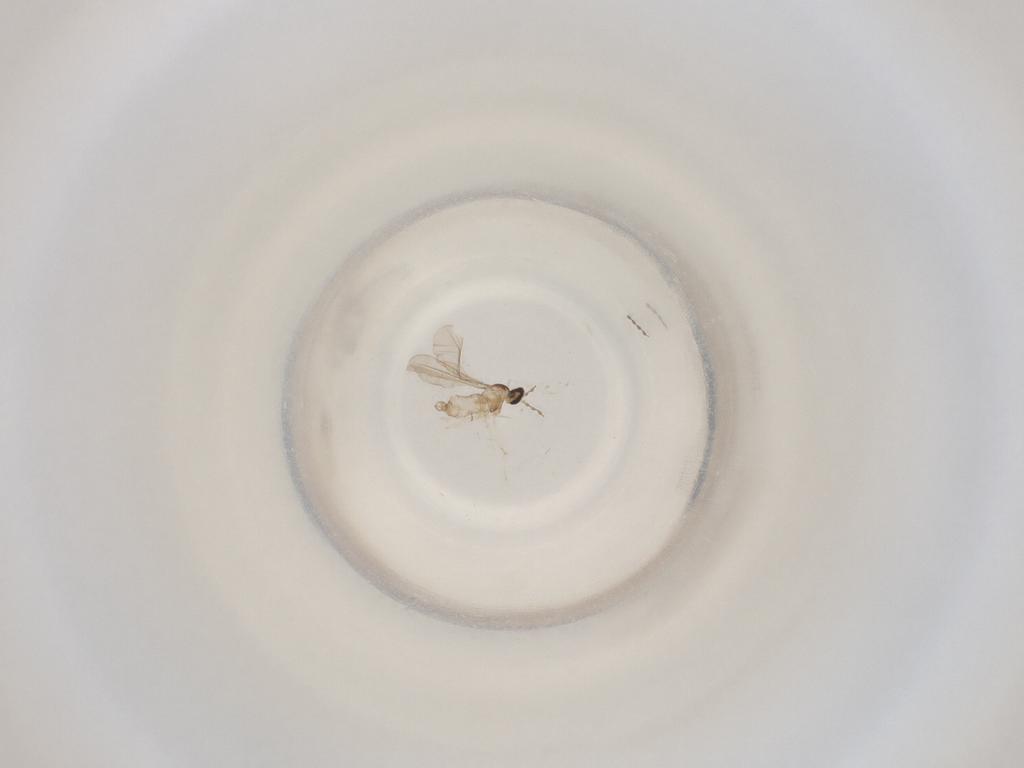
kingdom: Animalia
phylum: Arthropoda
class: Insecta
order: Diptera
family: Cecidomyiidae
